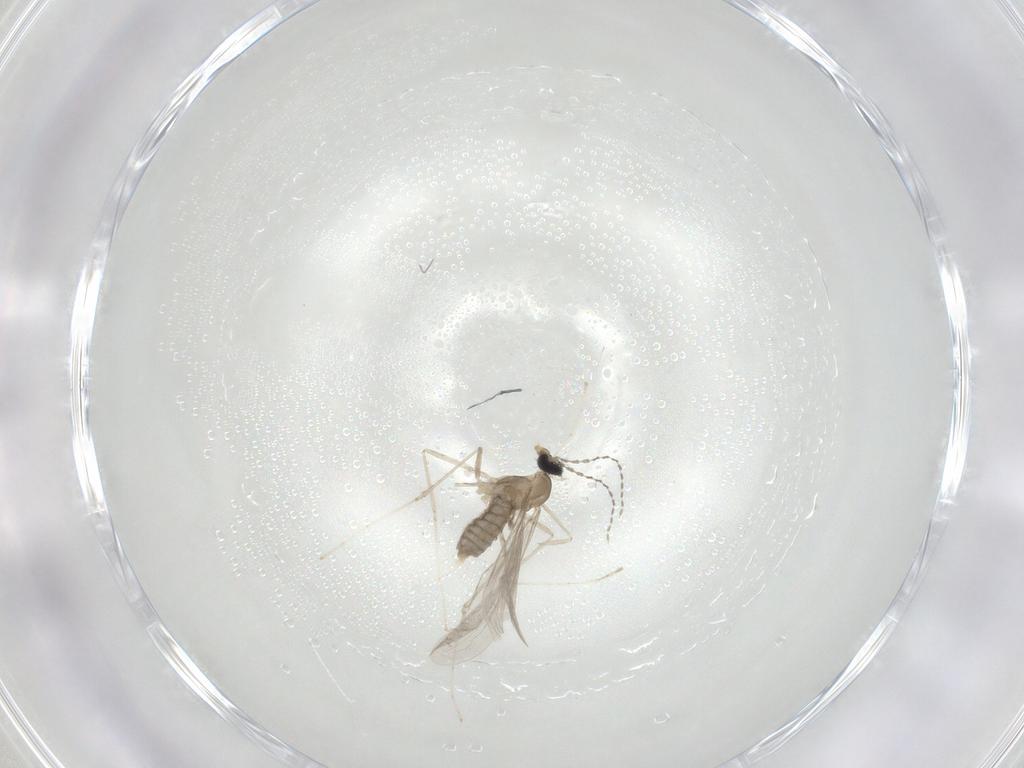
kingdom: Animalia
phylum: Arthropoda
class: Insecta
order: Diptera
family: Cecidomyiidae
